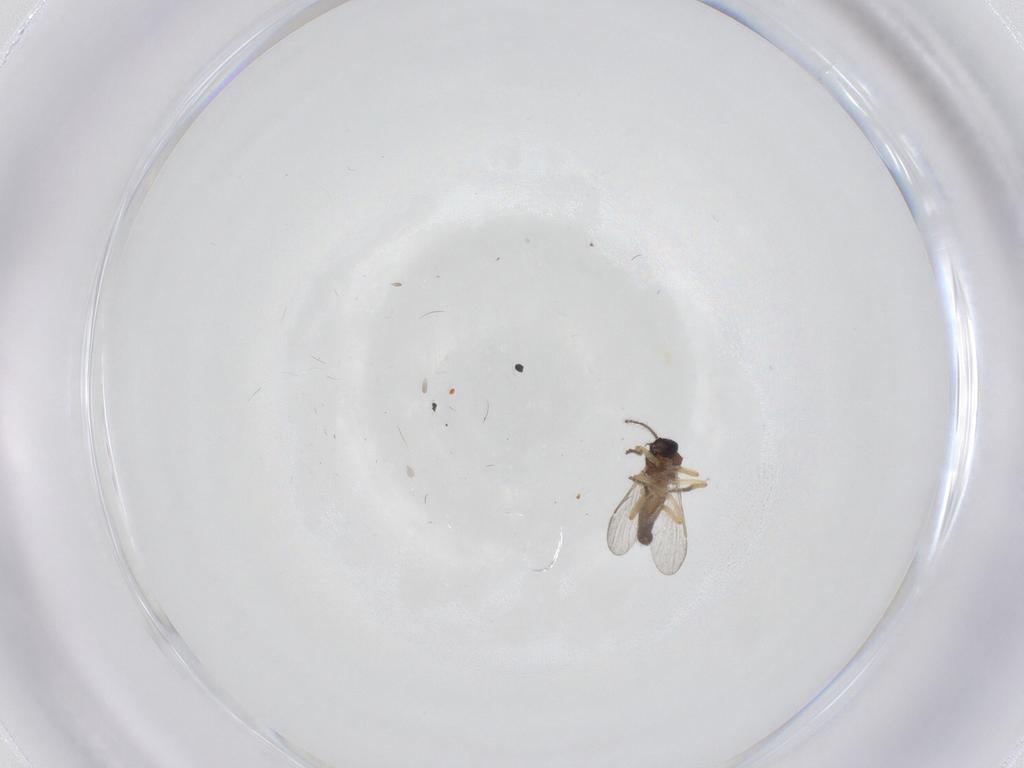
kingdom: Animalia
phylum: Arthropoda
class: Insecta
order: Diptera
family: Ceratopogonidae
